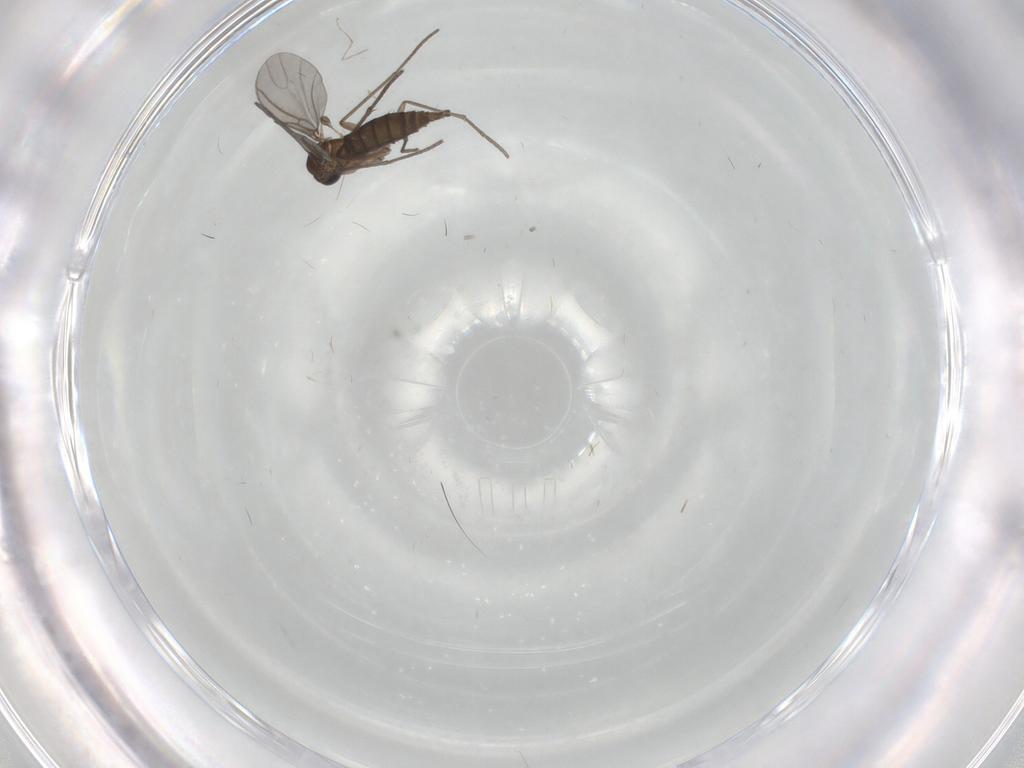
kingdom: Animalia
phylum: Arthropoda
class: Insecta
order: Diptera
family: Sciaridae
